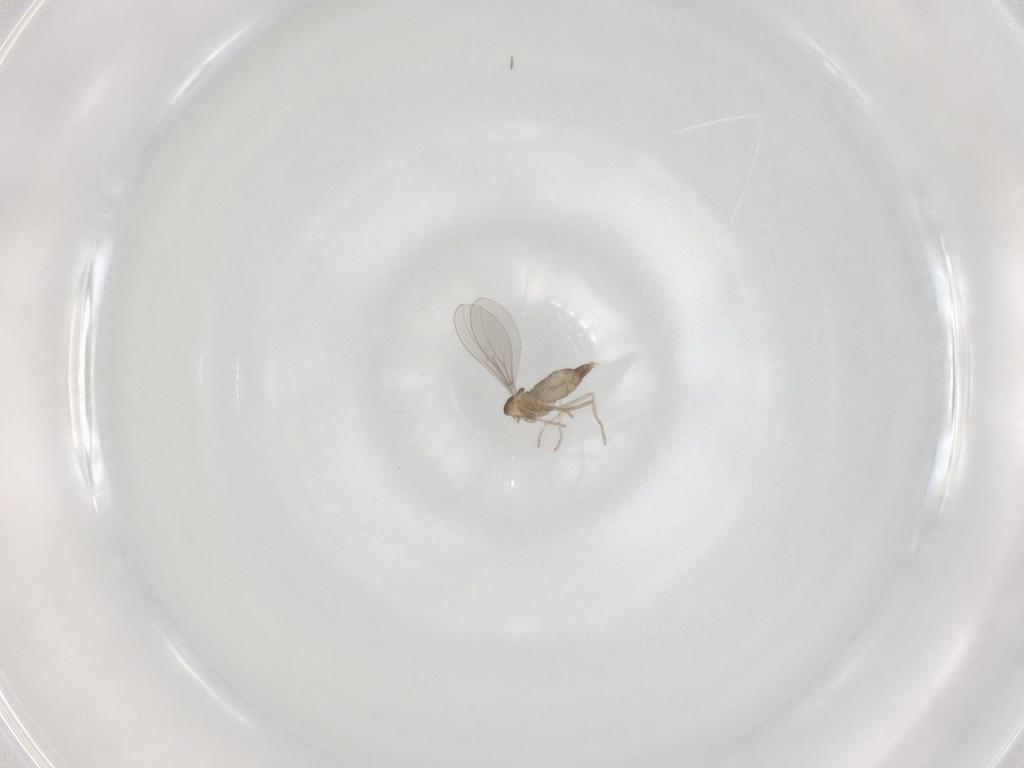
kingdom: Animalia
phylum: Arthropoda
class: Insecta
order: Diptera
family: Cecidomyiidae
